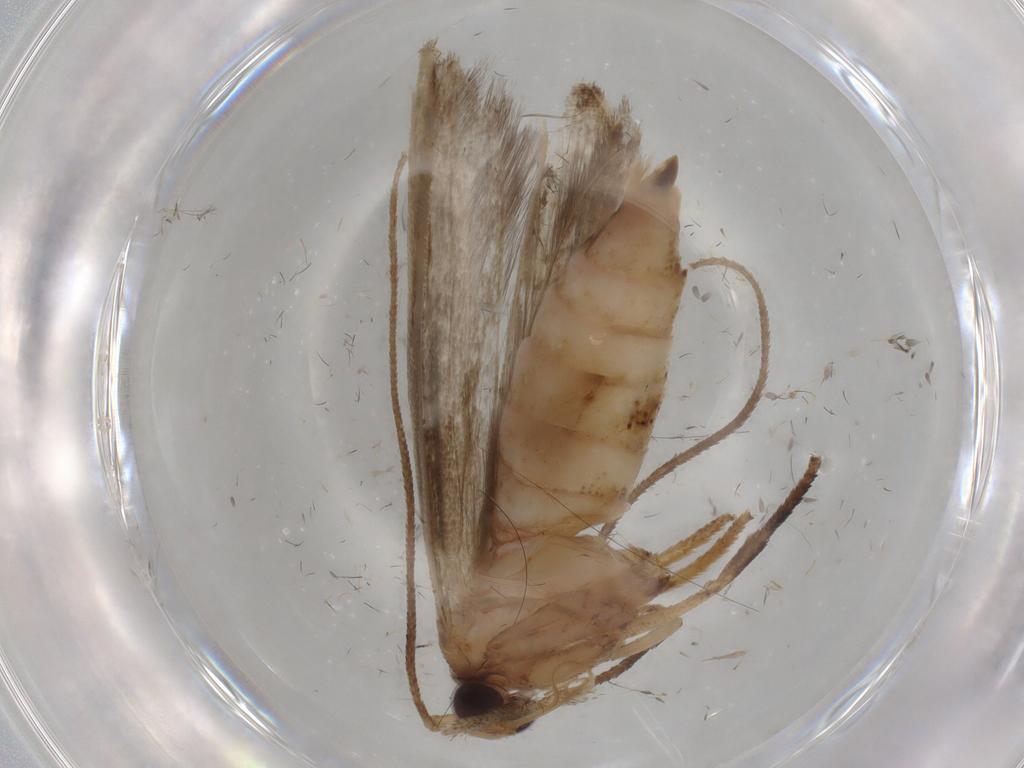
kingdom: Animalia
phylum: Arthropoda
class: Insecta
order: Lepidoptera
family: Yponomeutidae
